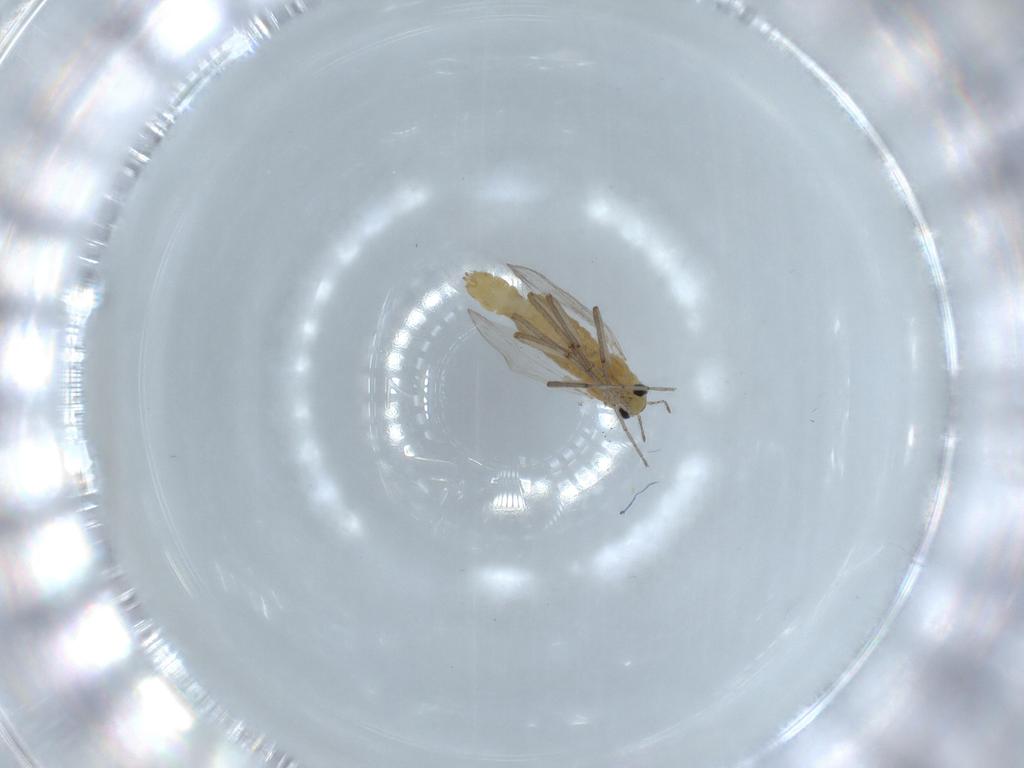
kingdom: Animalia
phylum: Arthropoda
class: Insecta
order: Diptera
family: Chironomidae
